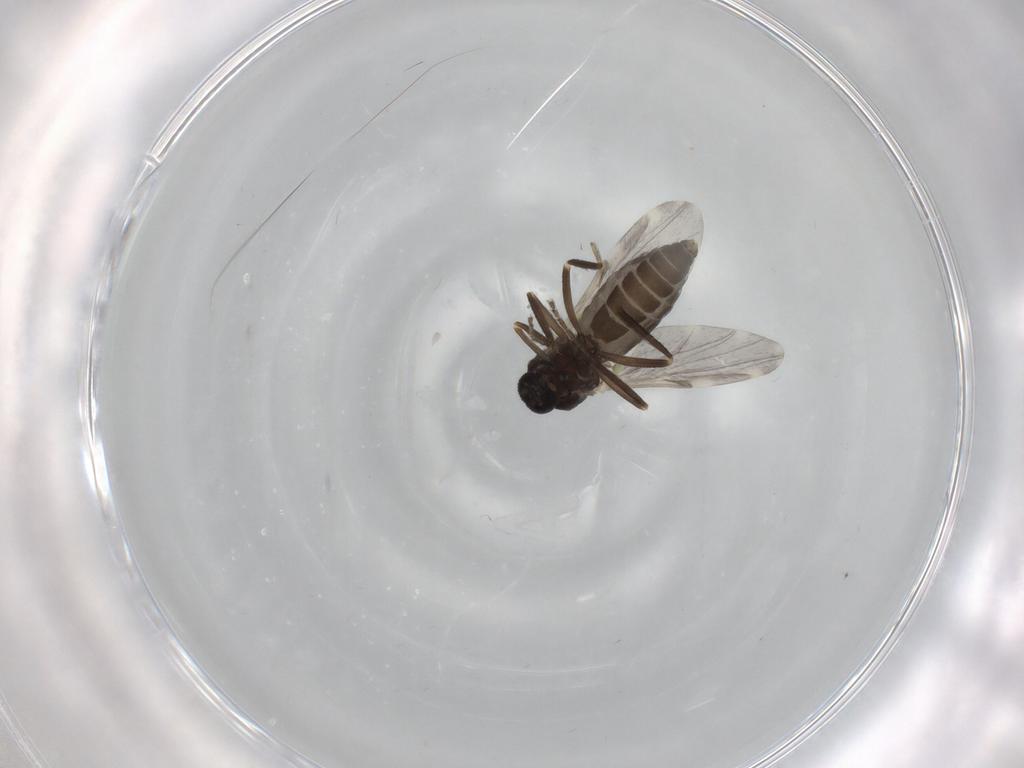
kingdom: Animalia
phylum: Arthropoda
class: Insecta
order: Diptera
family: Ceratopogonidae
